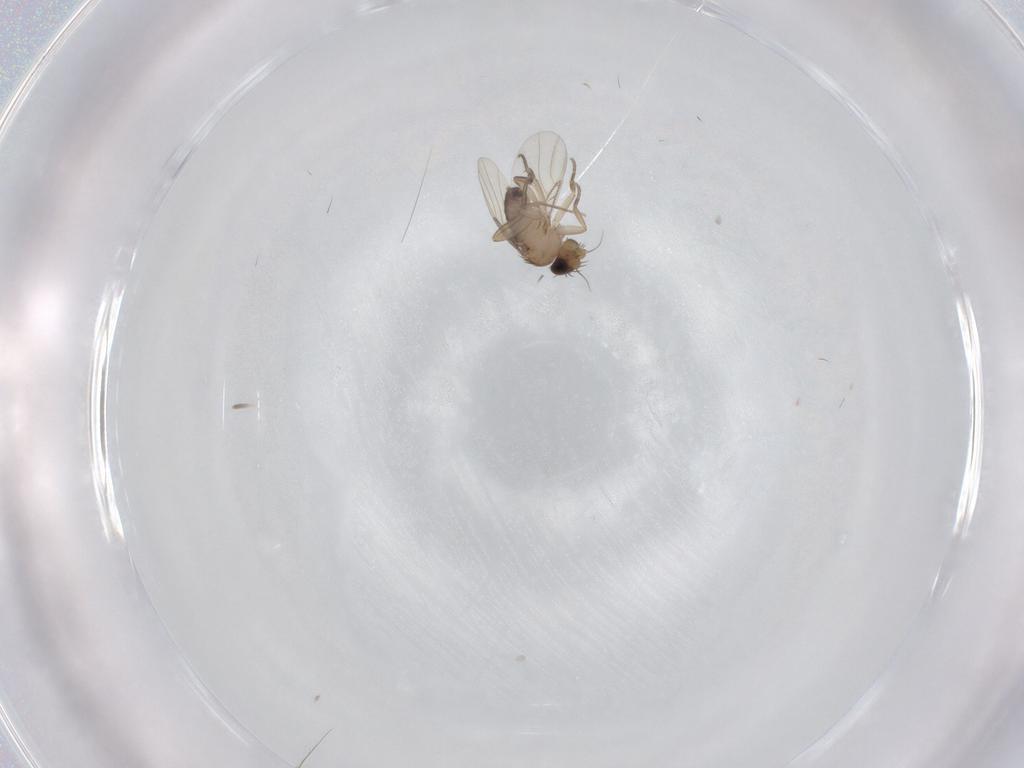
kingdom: Animalia
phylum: Arthropoda
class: Insecta
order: Diptera
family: Phoridae
